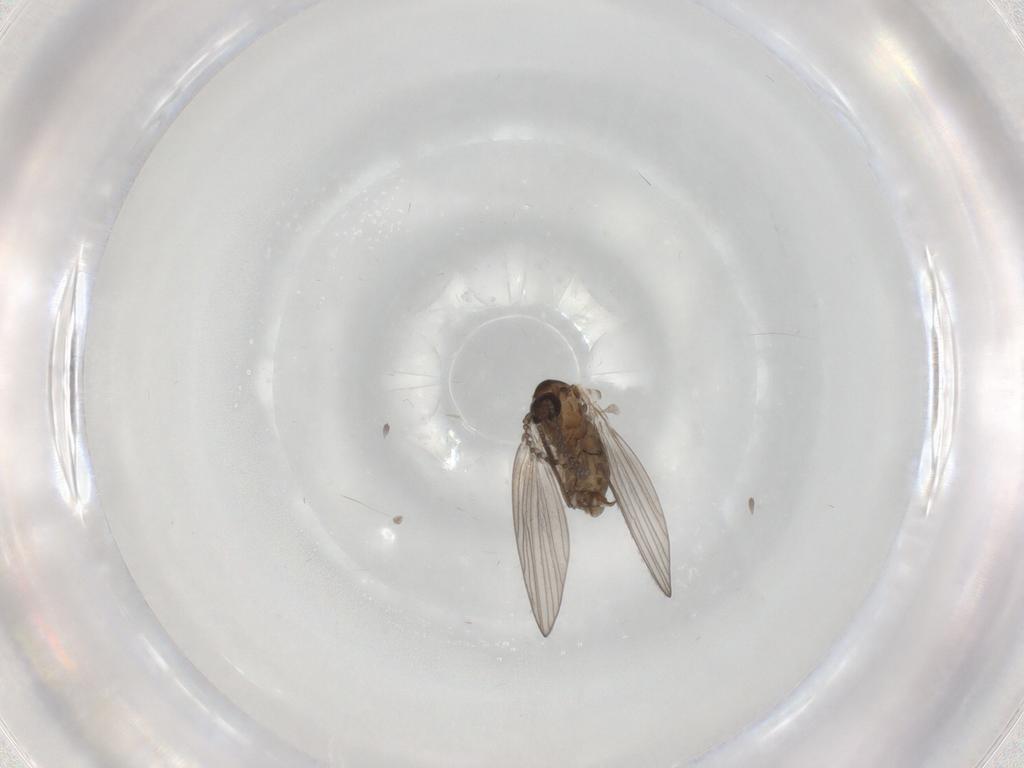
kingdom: Animalia
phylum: Arthropoda
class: Insecta
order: Diptera
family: Psychodidae
